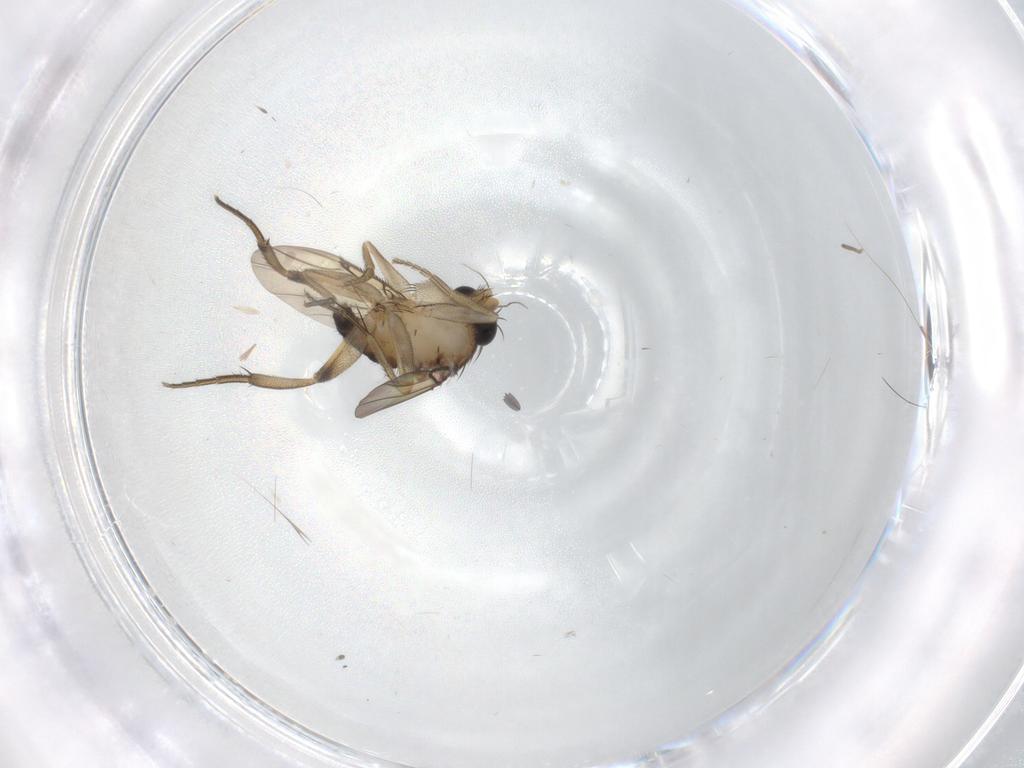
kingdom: Animalia
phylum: Arthropoda
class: Insecta
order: Diptera
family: Phoridae
